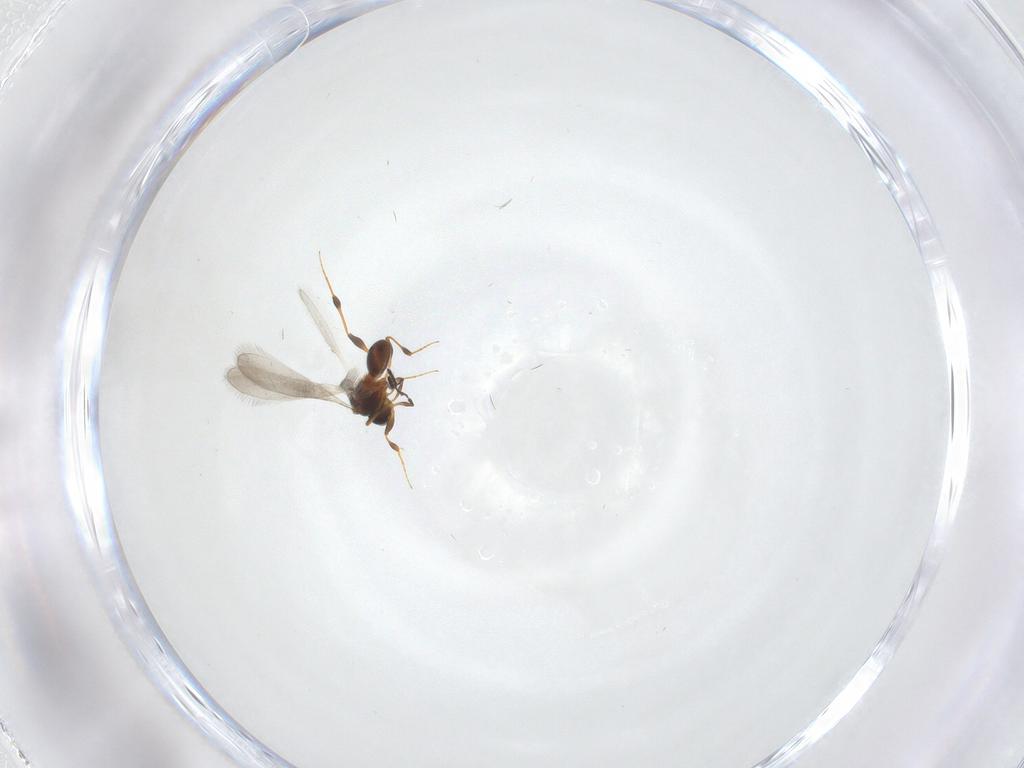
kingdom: Animalia
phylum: Arthropoda
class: Insecta
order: Hymenoptera
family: Platygastridae
